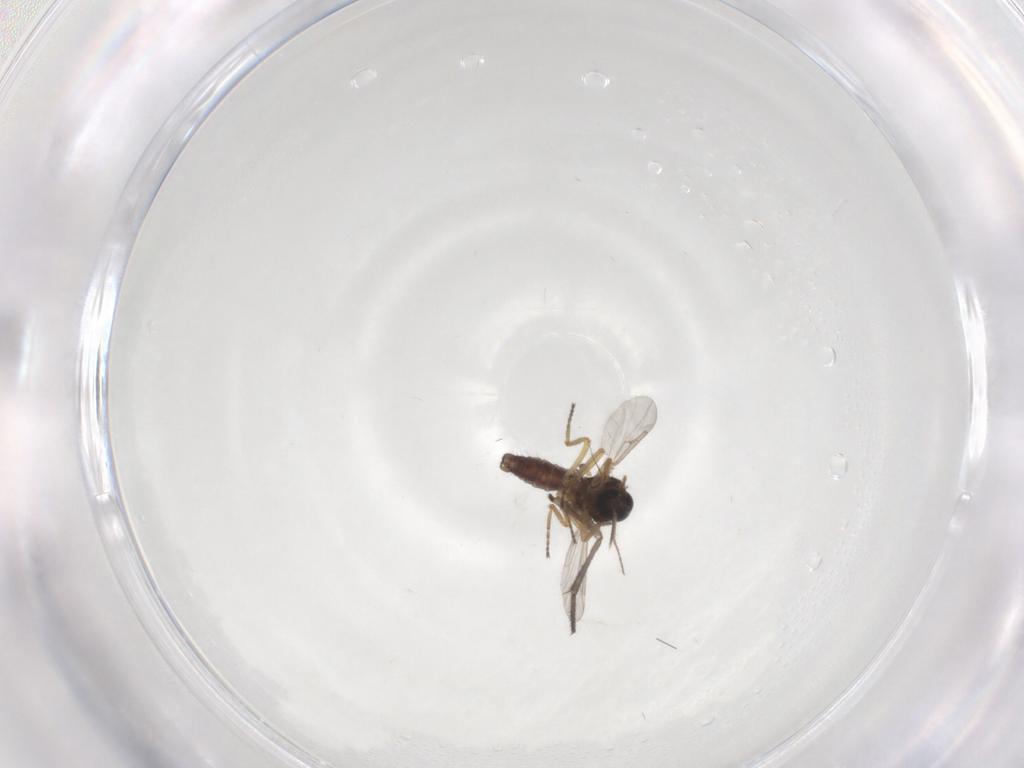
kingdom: Animalia
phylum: Arthropoda
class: Insecta
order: Diptera
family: Ceratopogonidae
